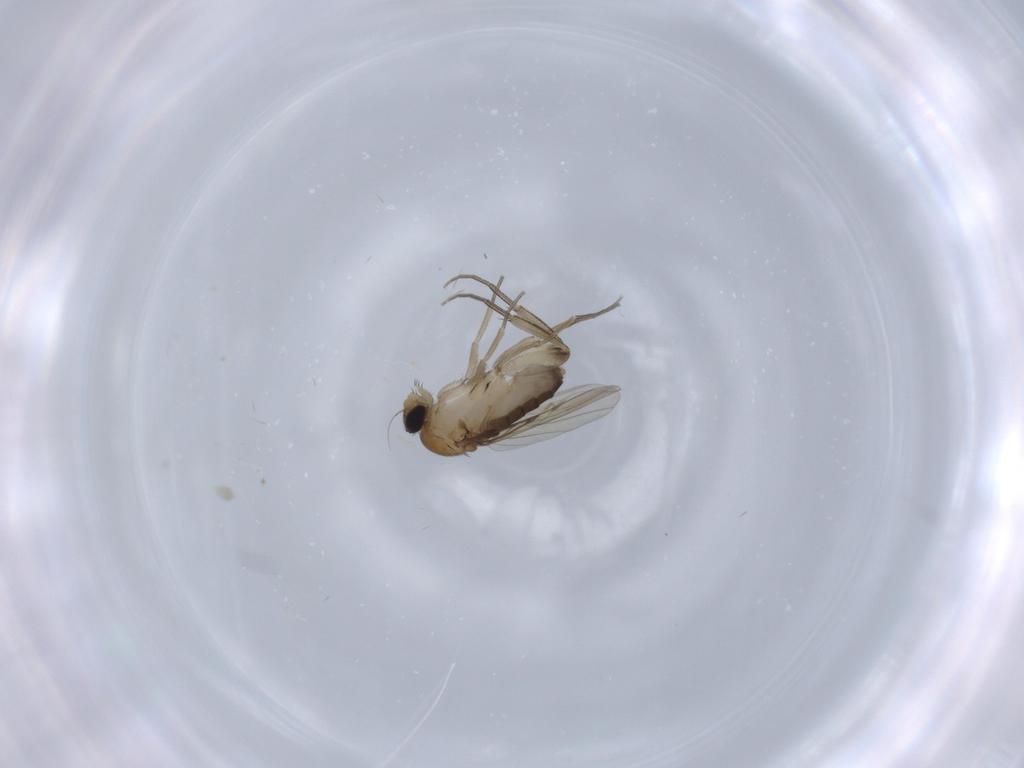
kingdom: Animalia
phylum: Arthropoda
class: Insecta
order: Diptera
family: Phoridae
